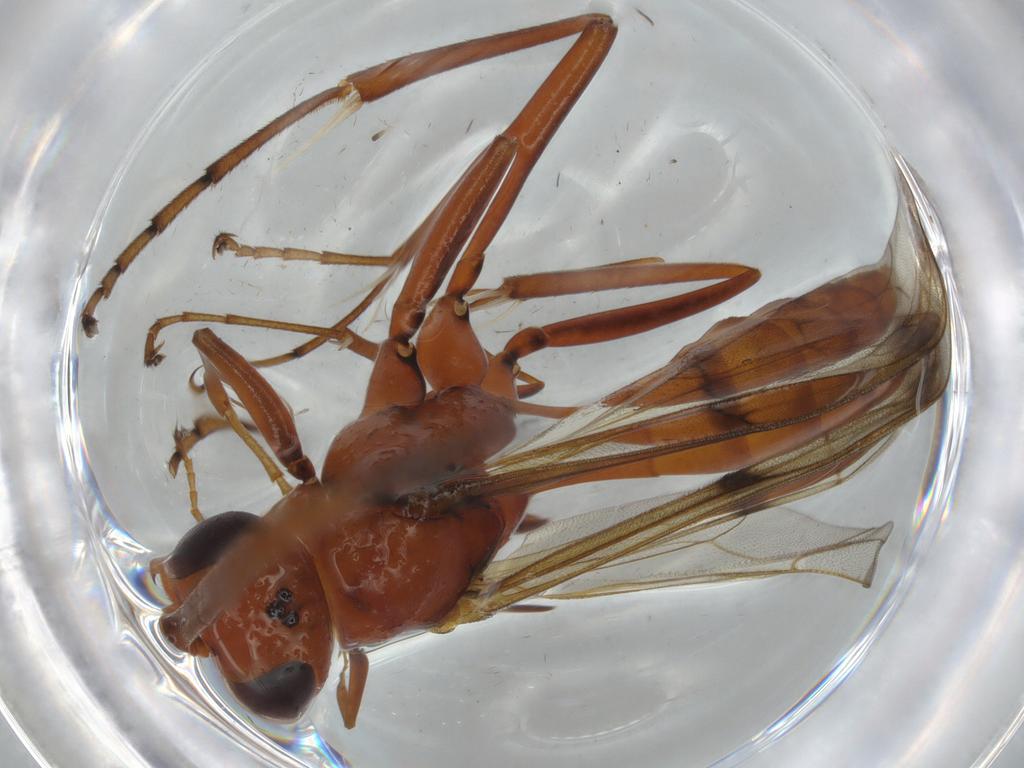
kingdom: Animalia
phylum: Arthropoda
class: Insecta
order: Hymenoptera
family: Pompilidae
